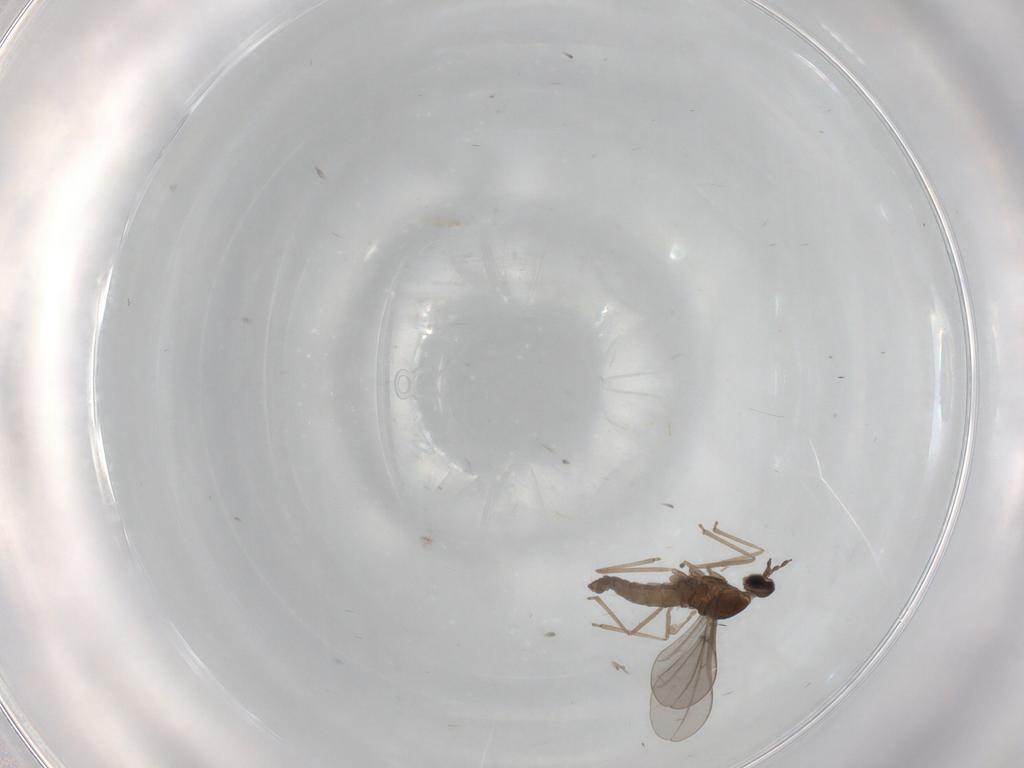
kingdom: Animalia
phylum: Arthropoda
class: Insecta
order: Diptera
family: Cecidomyiidae
